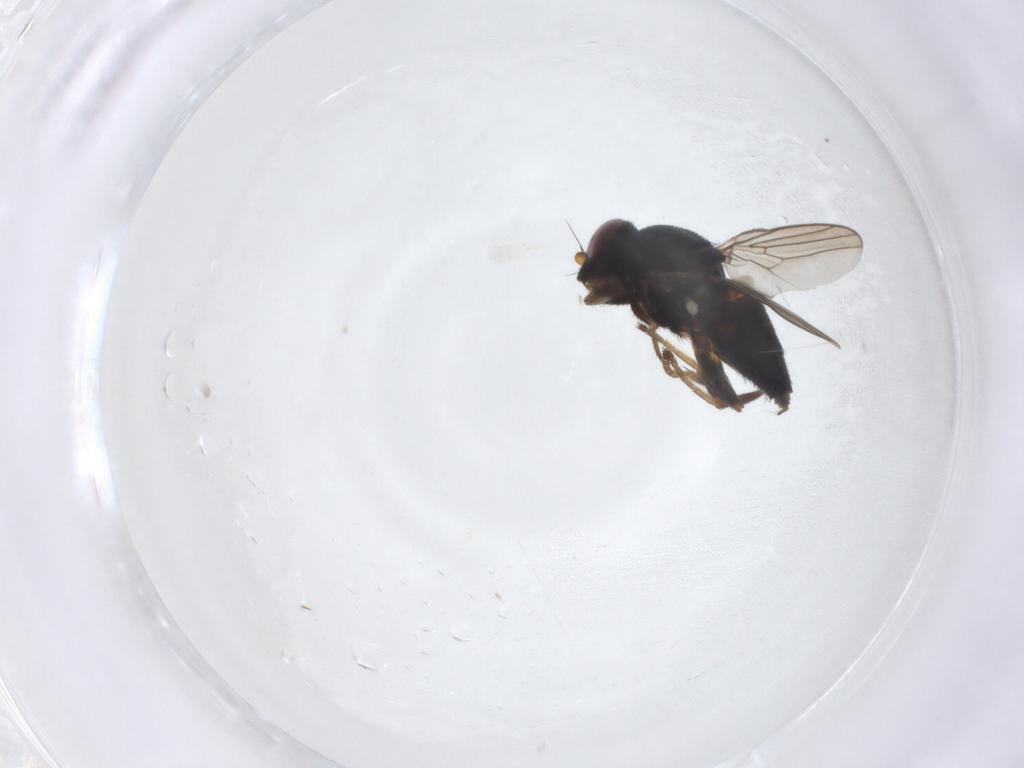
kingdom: Animalia
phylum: Arthropoda
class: Insecta
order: Diptera
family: Chloropidae
